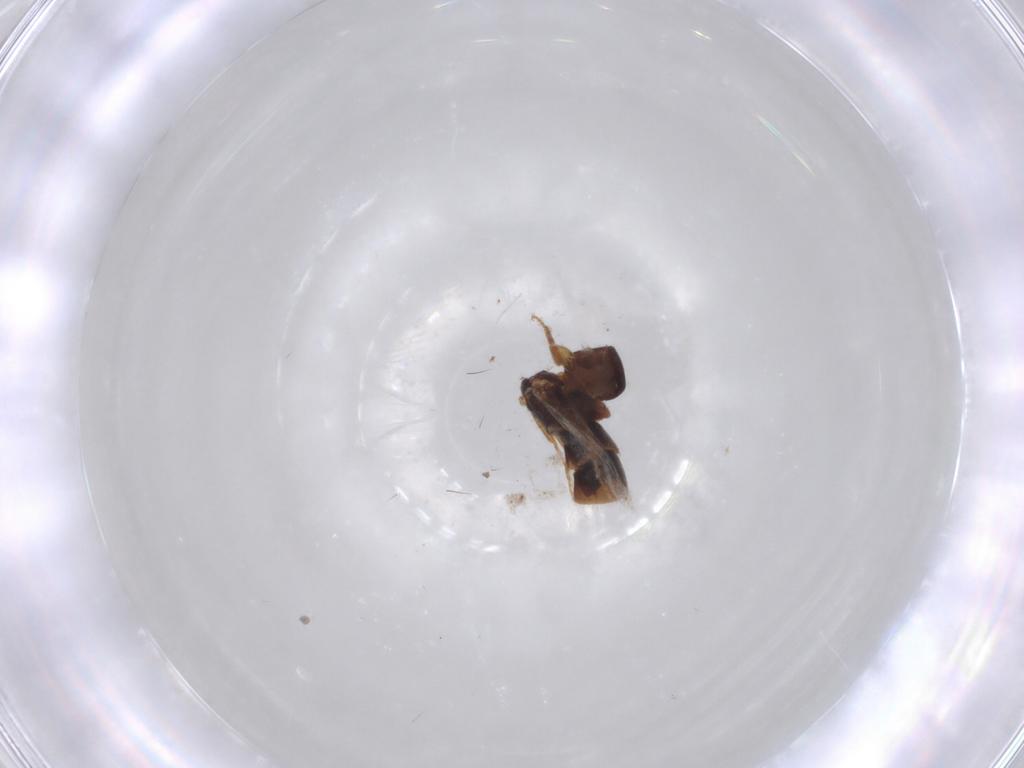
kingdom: Animalia
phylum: Arthropoda
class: Insecta
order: Coleoptera
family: Staphylinidae
